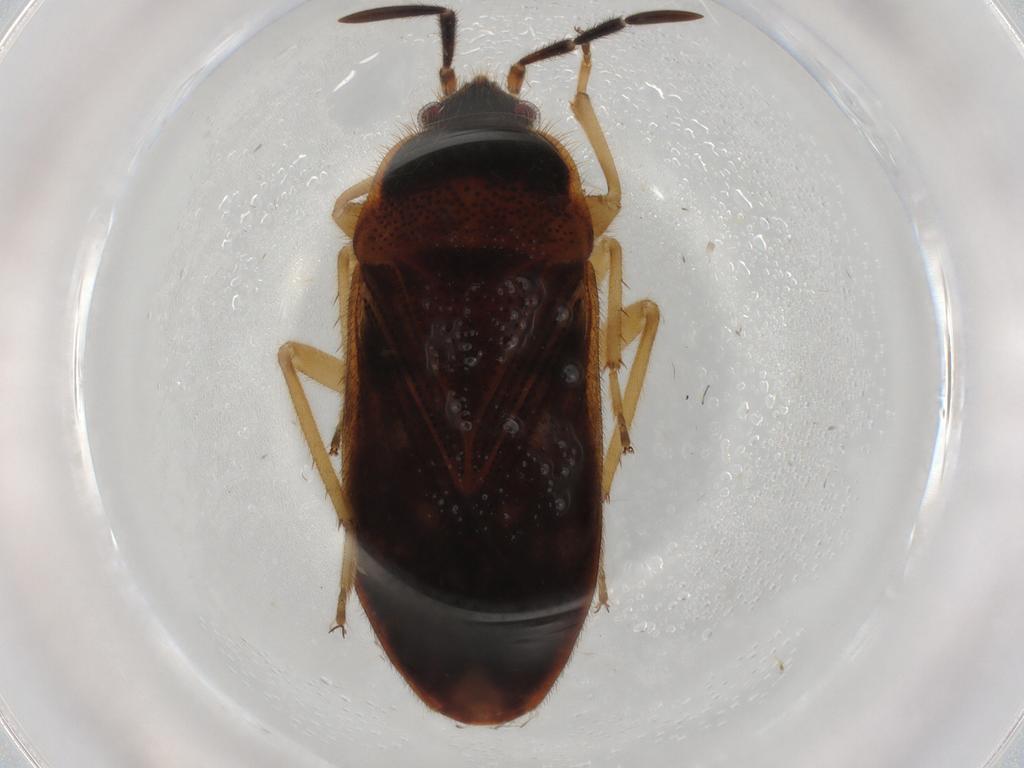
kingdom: Animalia
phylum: Arthropoda
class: Insecta
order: Hemiptera
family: Rhyparochromidae
